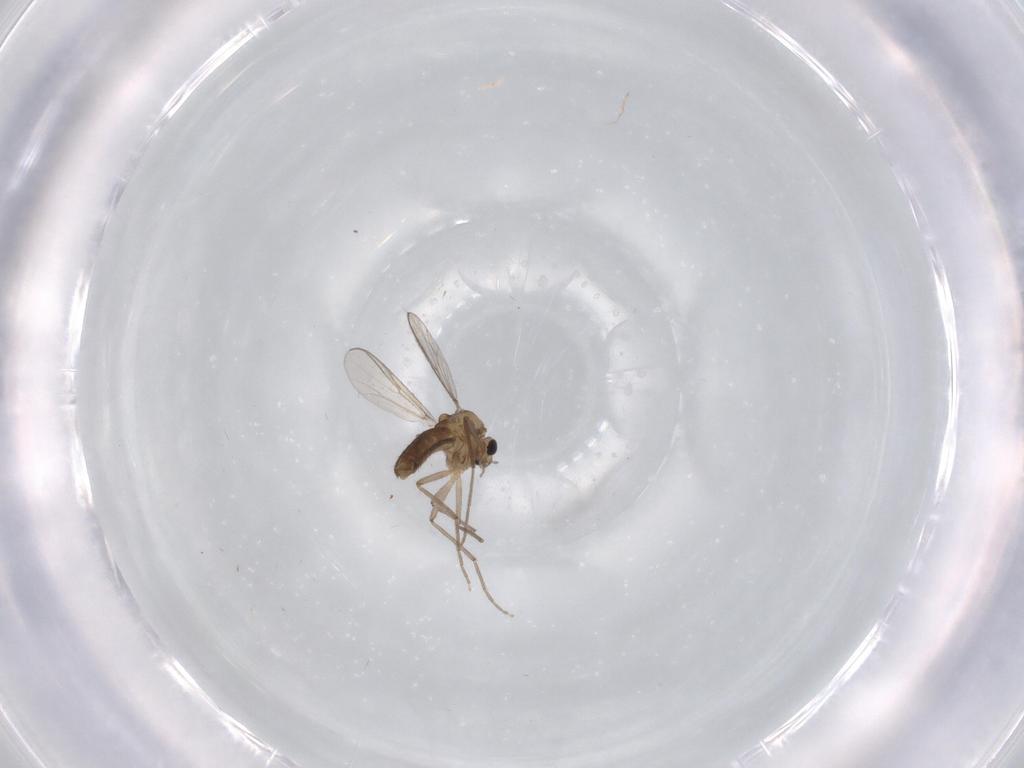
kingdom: Animalia
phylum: Arthropoda
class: Insecta
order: Diptera
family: Chironomidae
